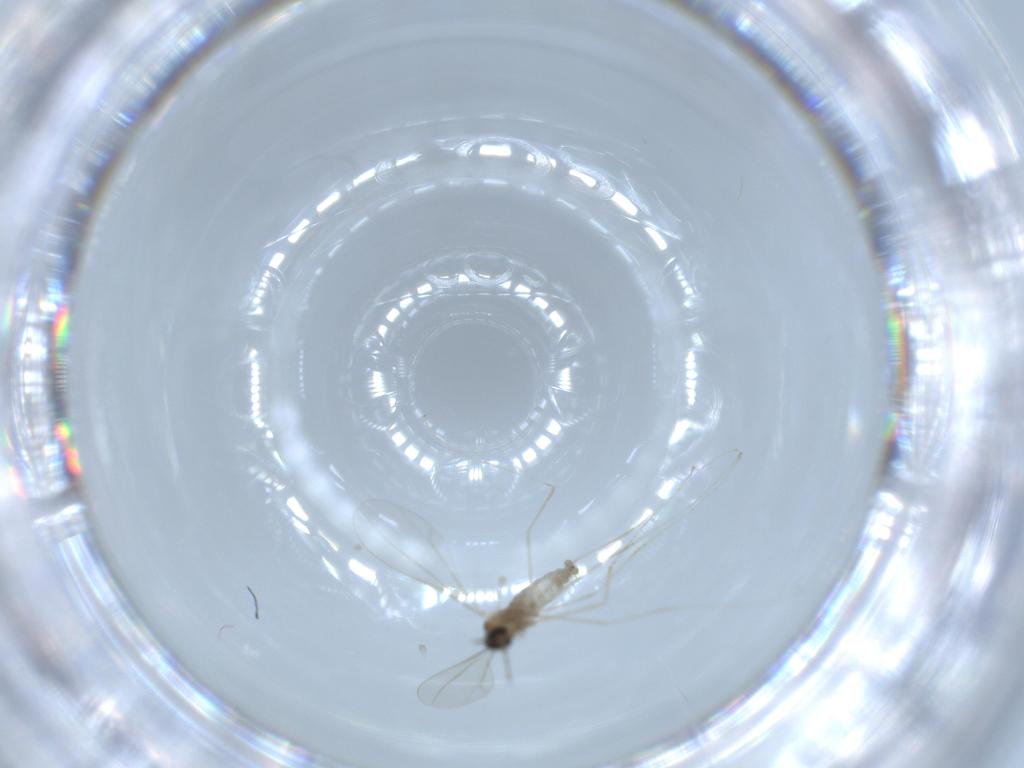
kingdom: Animalia
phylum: Arthropoda
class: Insecta
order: Diptera
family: Cecidomyiidae
